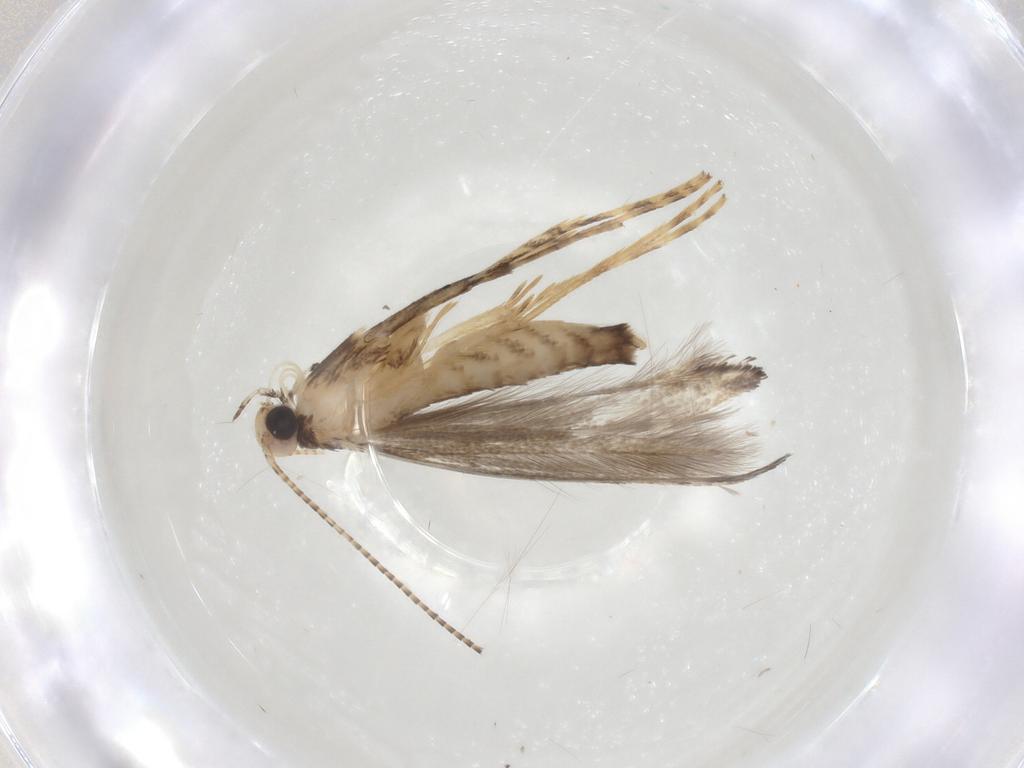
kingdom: Animalia
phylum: Arthropoda
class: Insecta
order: Lepidoptera
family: Gracillariidae
